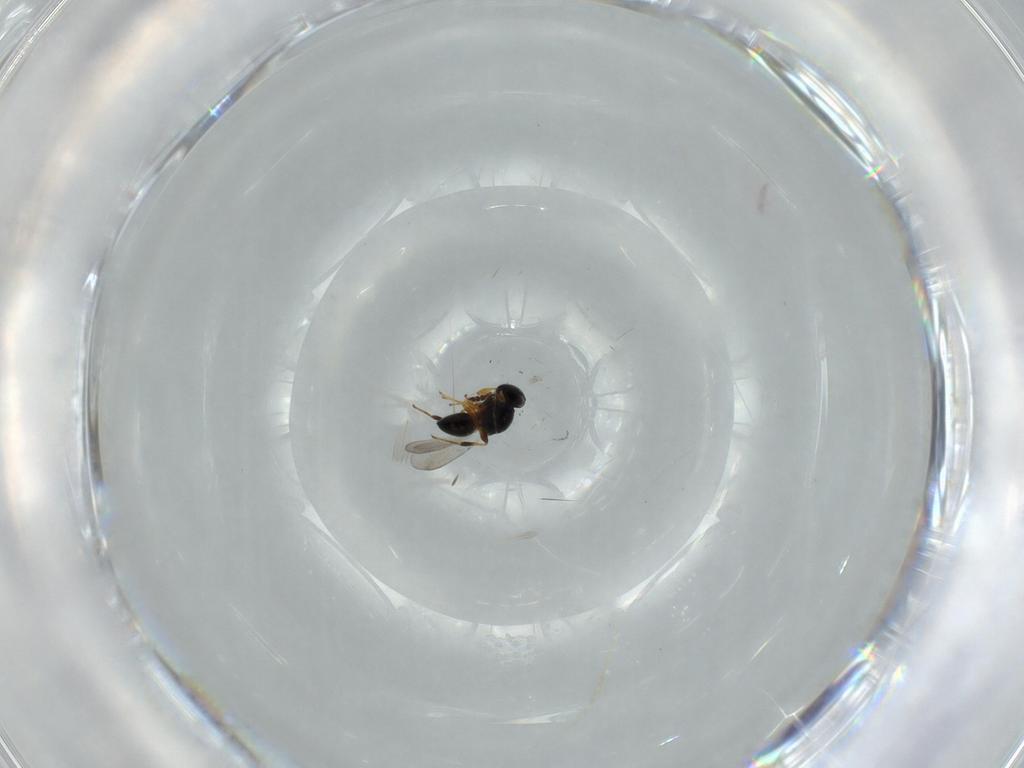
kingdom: Animalia
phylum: Arthropoda
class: Insecta
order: Hymenoptera
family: Platygastridae
